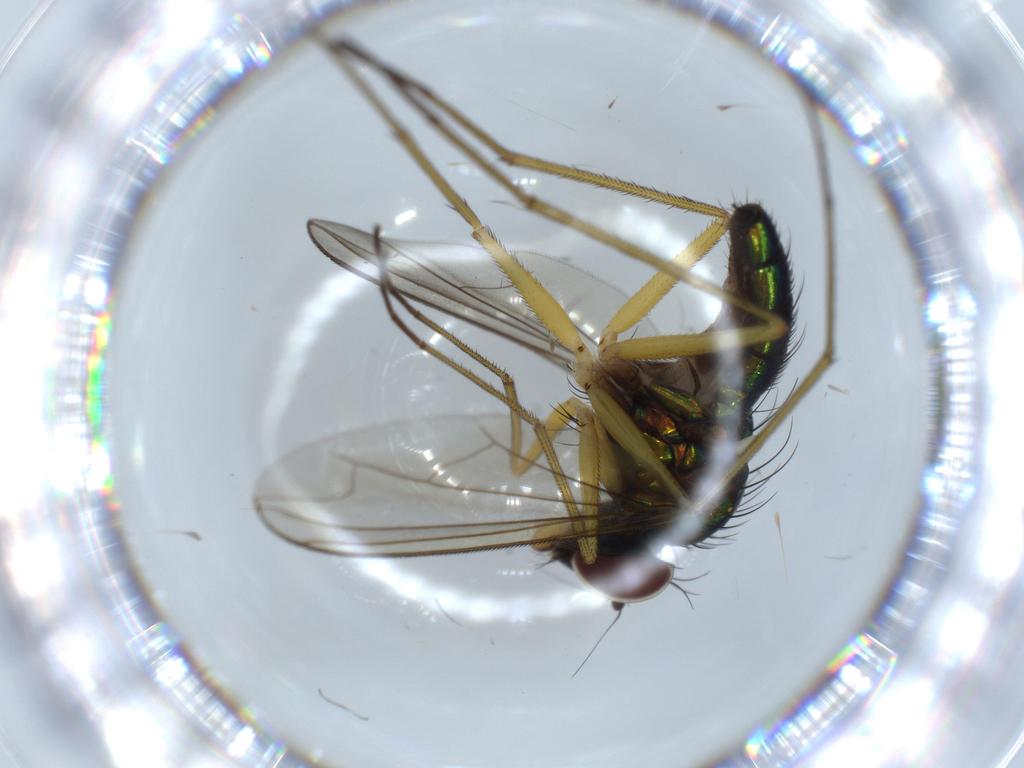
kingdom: Animalia
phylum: Arthropoda
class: Insecta
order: Diptera
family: Dolichopodidae
